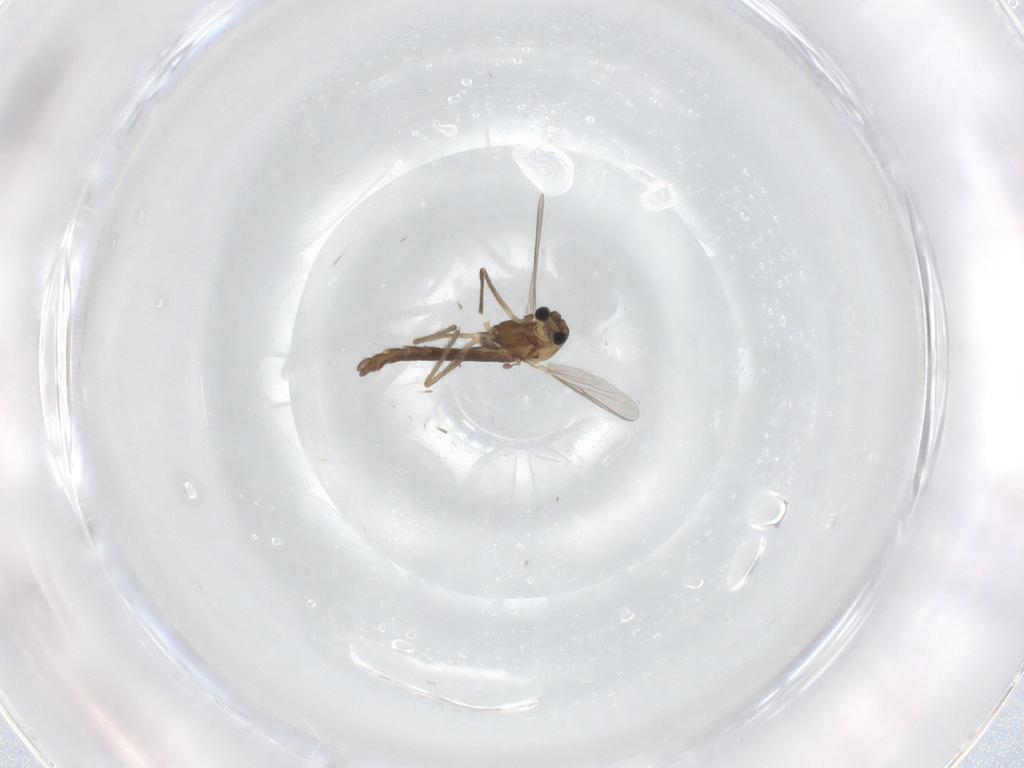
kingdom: Animalia
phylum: Arthropoda
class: Insecta
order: Diptera
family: Chironomidae
